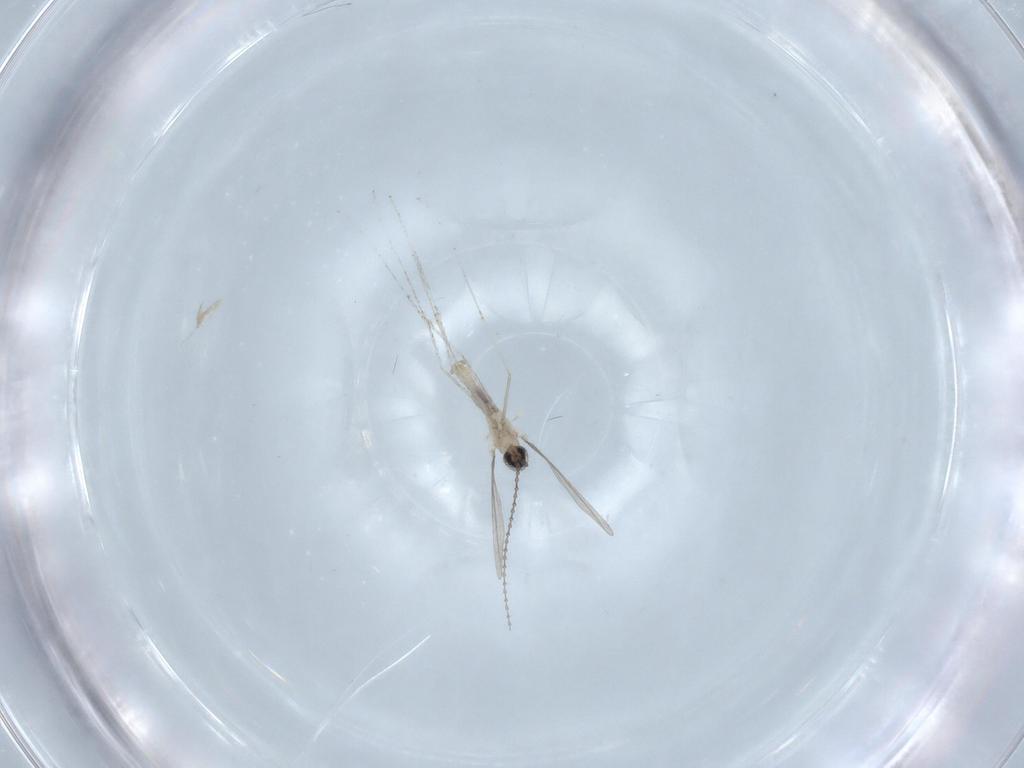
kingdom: Animalia
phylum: Arthropoda
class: Insecta
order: Diptera
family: Cecidomyiidae
